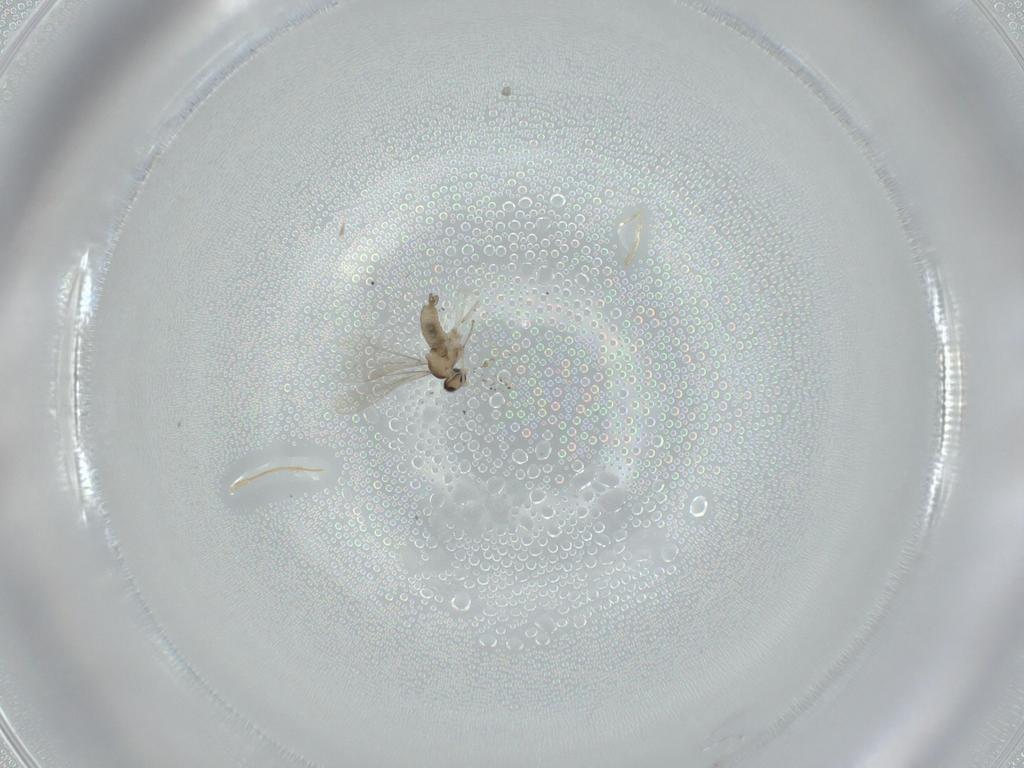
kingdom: Animalia
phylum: Arthropoda
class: Insecta
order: Diptera
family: Cecidomyiidae
